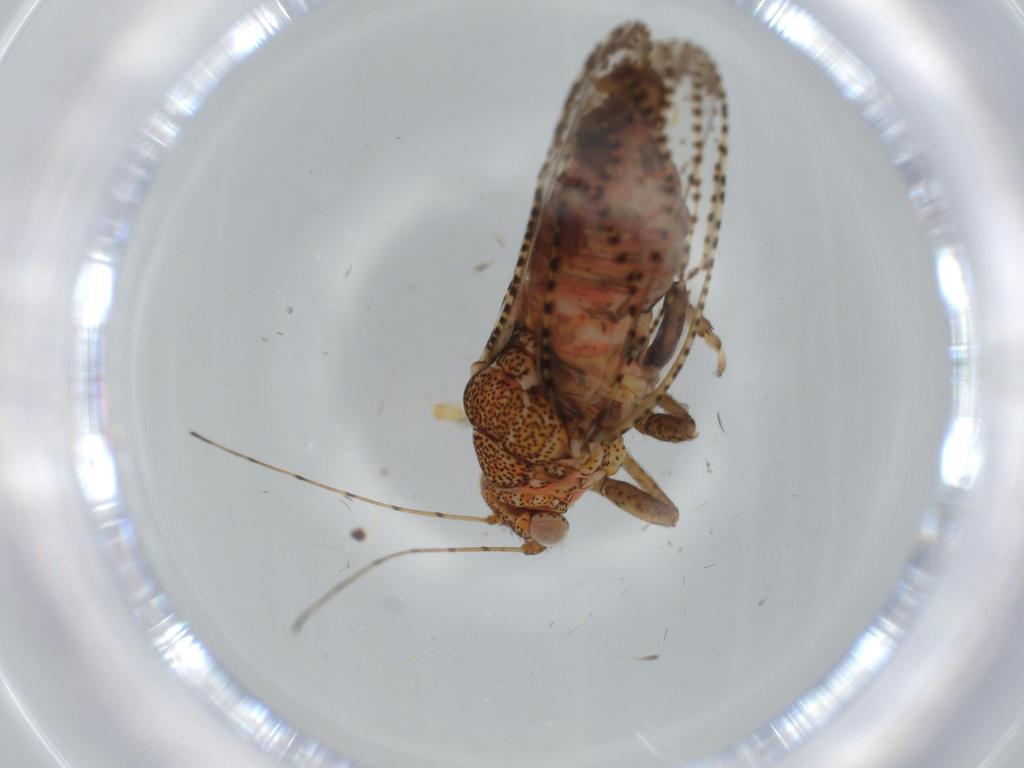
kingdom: Animalia
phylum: Arthropoda
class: Insecta
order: Hemiptera
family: Psyllidae
